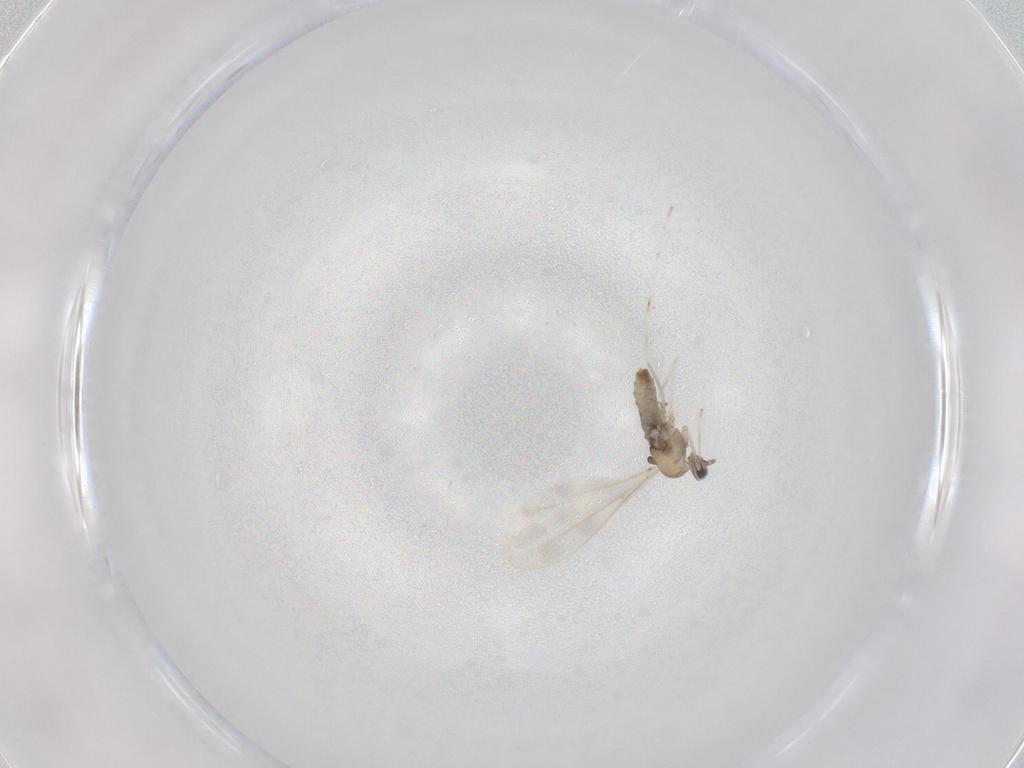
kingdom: Animalia
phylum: Arthropoda
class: Insecta
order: Diptera
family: Cecidomyiidae
